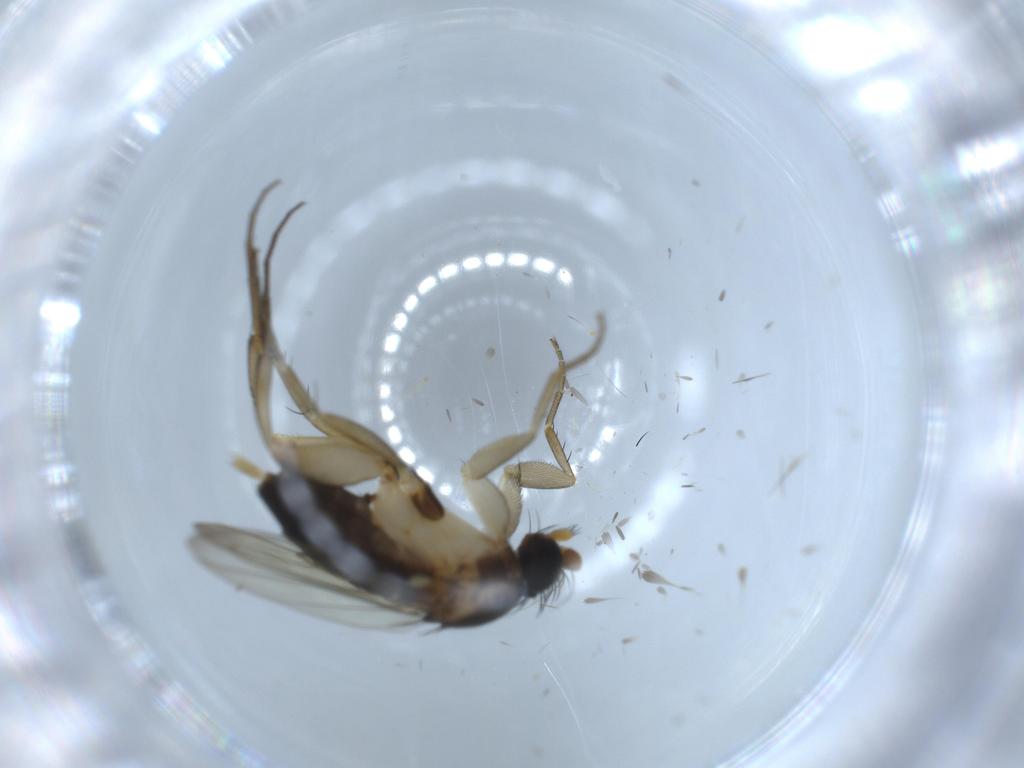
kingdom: Animalia
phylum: Arthropoda
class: Insecta
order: Diptera
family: Phoridae
